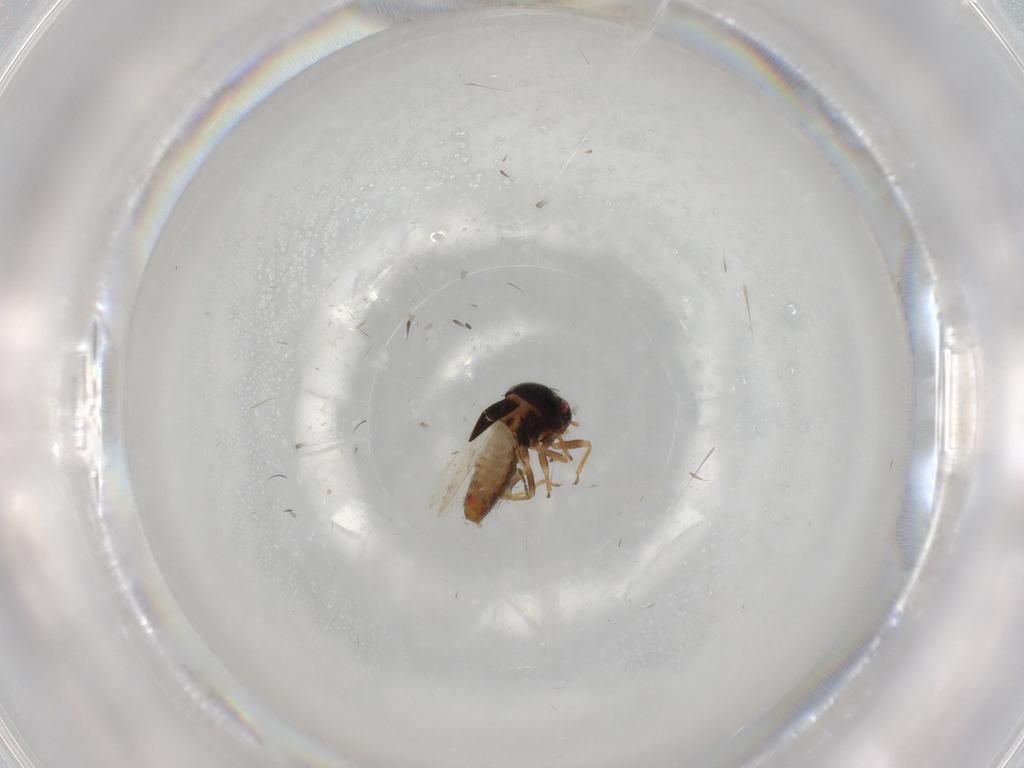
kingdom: Animalia
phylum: Arthropoda
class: Insecta
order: Hemiptera
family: Schizopteridae
